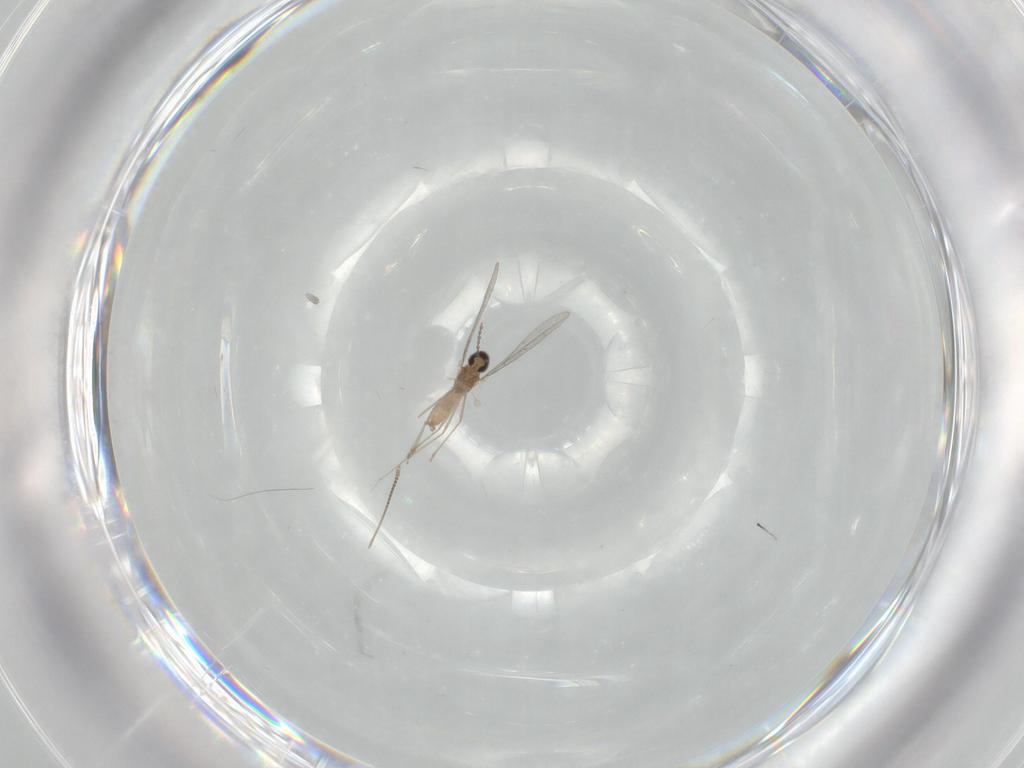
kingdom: Animalia
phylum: Arthropoda
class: Insecta
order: Diptera
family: Chironomidae
